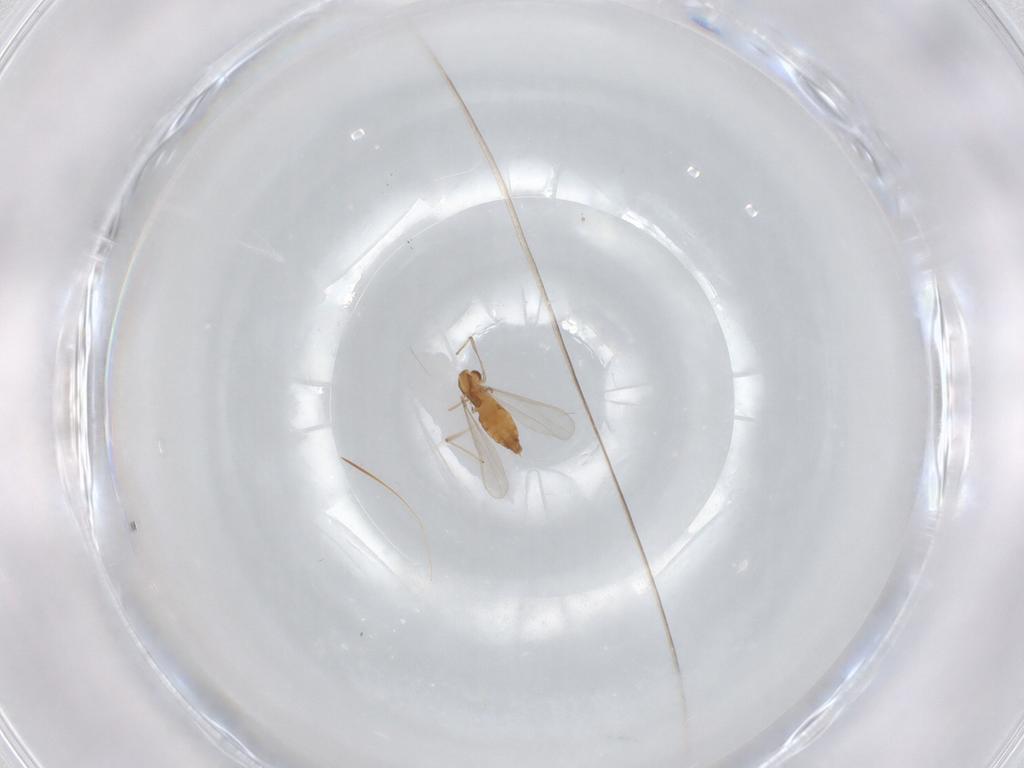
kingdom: Animalia
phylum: Arthropoda
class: Insecta
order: Diptera
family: Chironomidae
